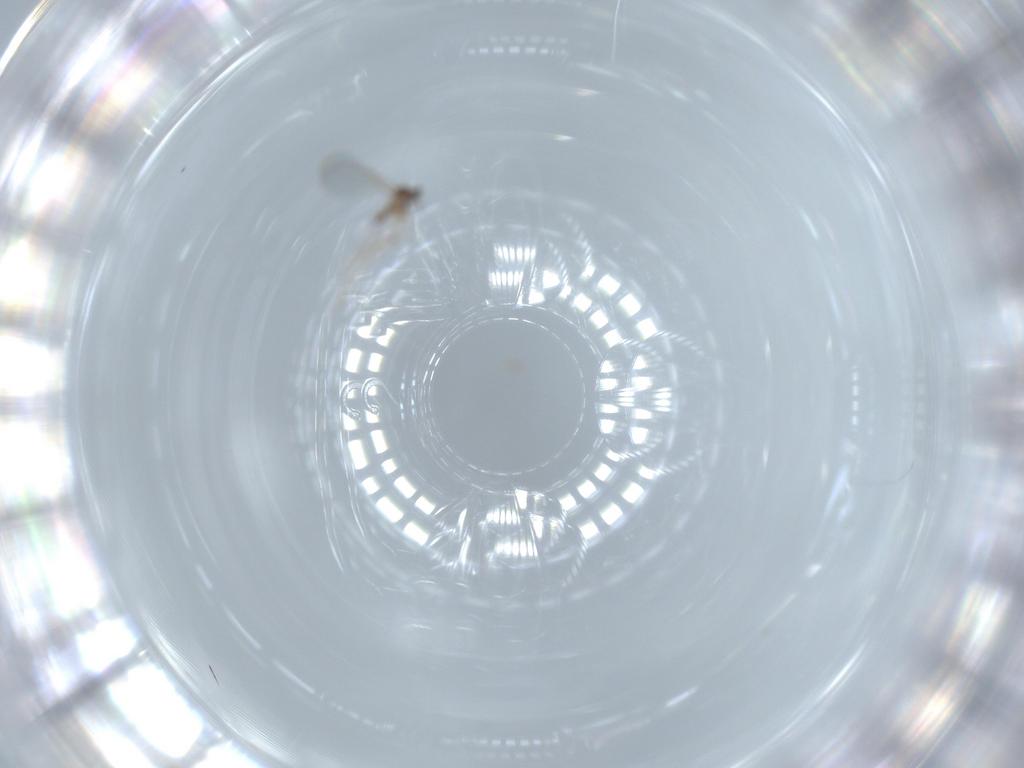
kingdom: Animalia
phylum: Arthropoda
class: Insecta
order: Diptera
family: Cecidomyiidae
